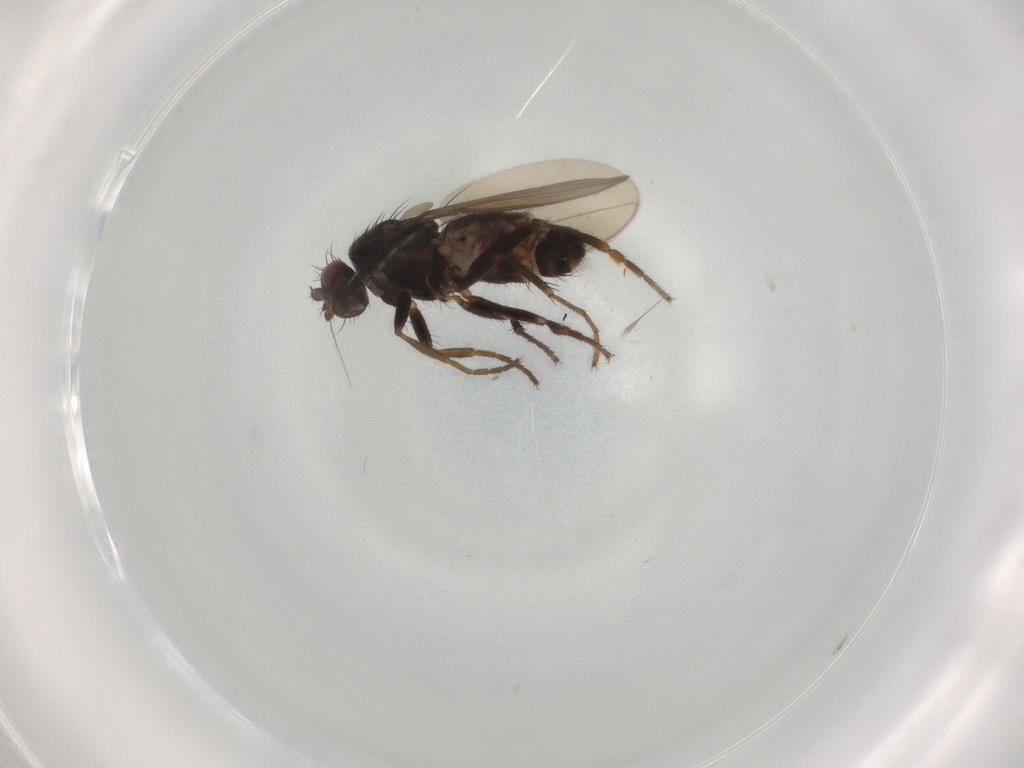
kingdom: Animalia
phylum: Arthropoda
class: Insecta
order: Diptera
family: Sphaeroceridae
